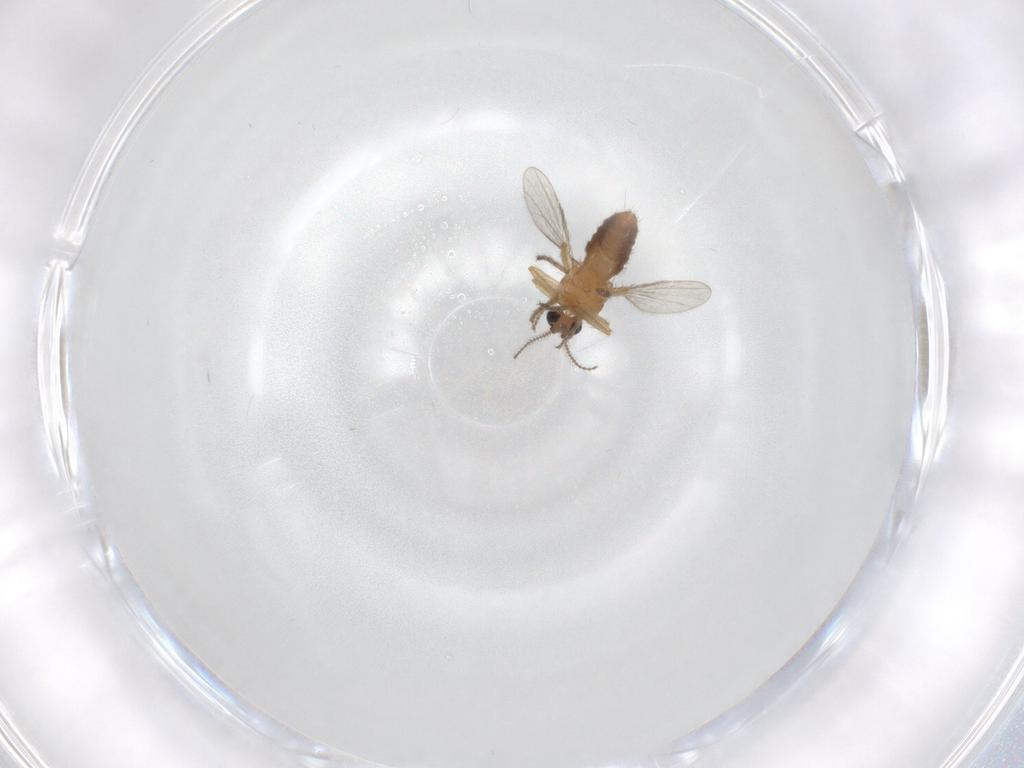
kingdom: Animalia
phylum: Arthropoda
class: Insecta
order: Diptera
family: Ceratopogonidae
